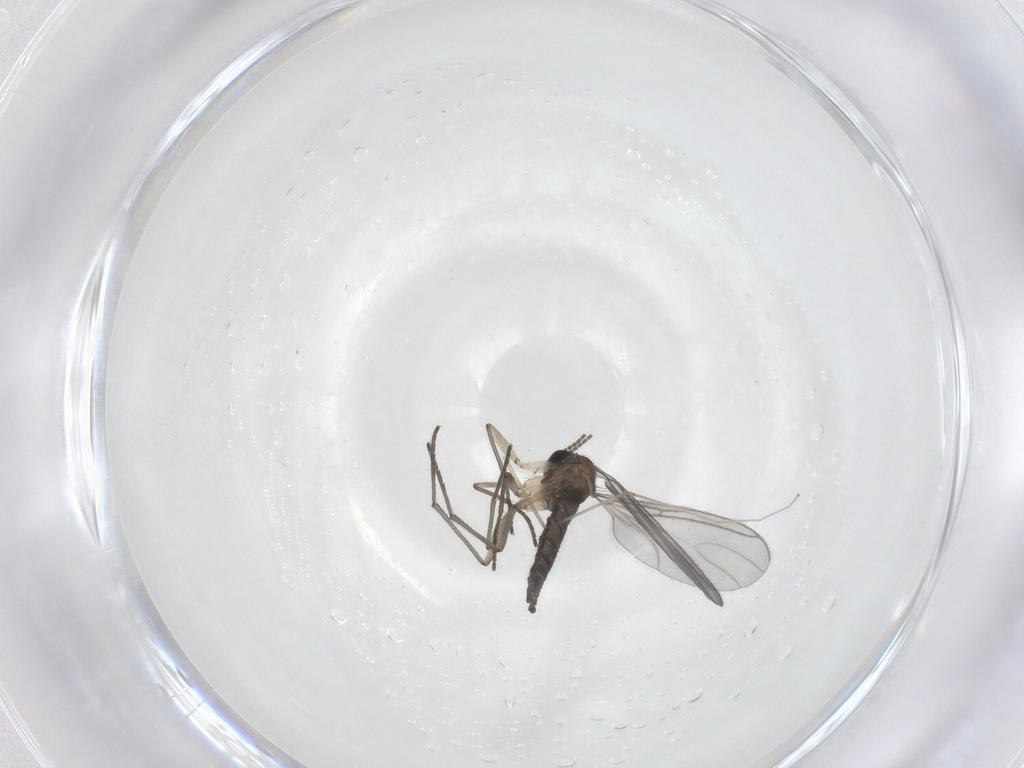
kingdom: Animalia
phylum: Arthropoda
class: Insecta
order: Diptera
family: Sciaridae
